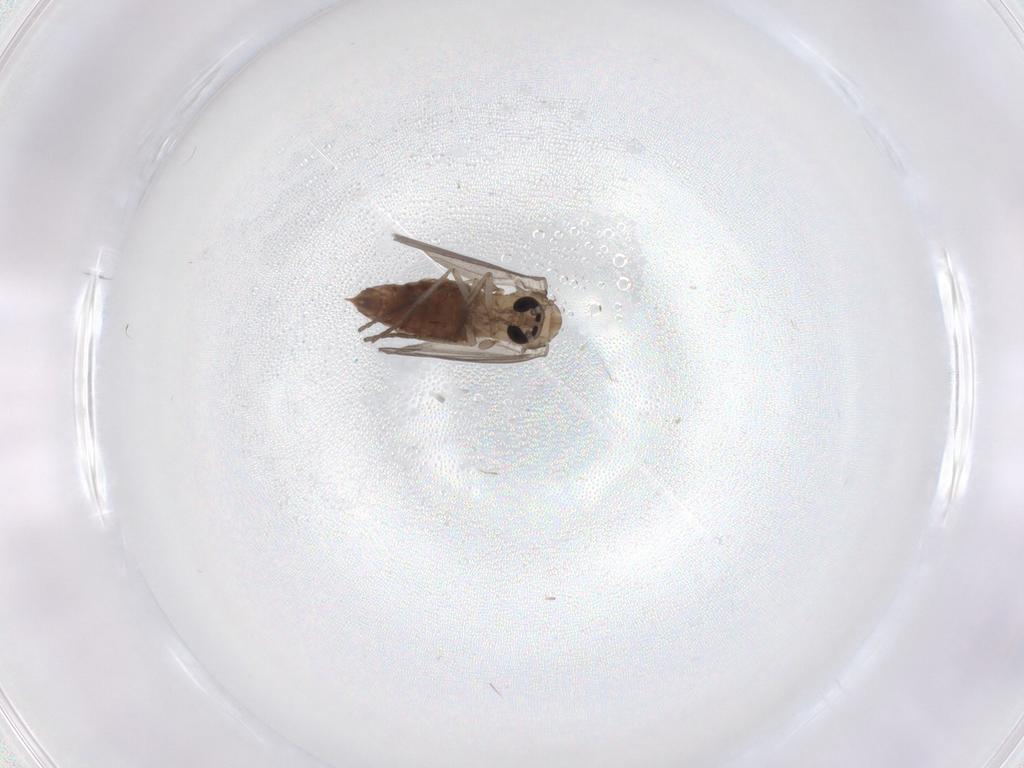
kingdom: Animalia
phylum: Arthropoda
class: Insecta
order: Diptera
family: Psychodidae
